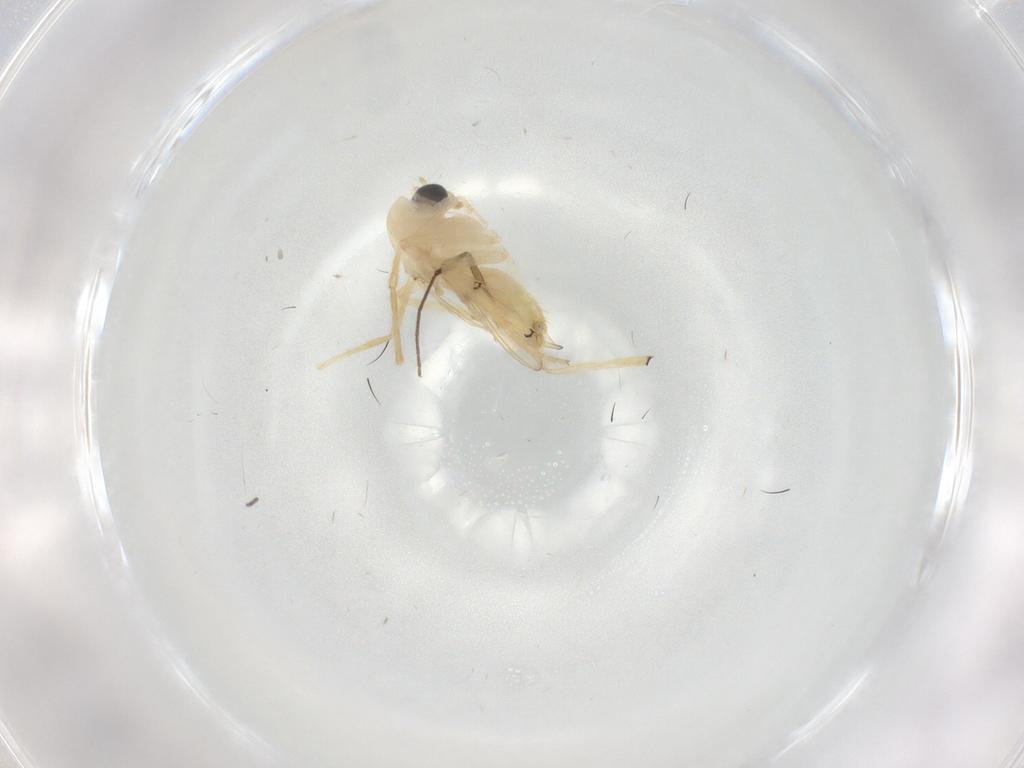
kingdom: Animalia
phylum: Arthropoda
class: Insecta
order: Diptera
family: Chironomidae
